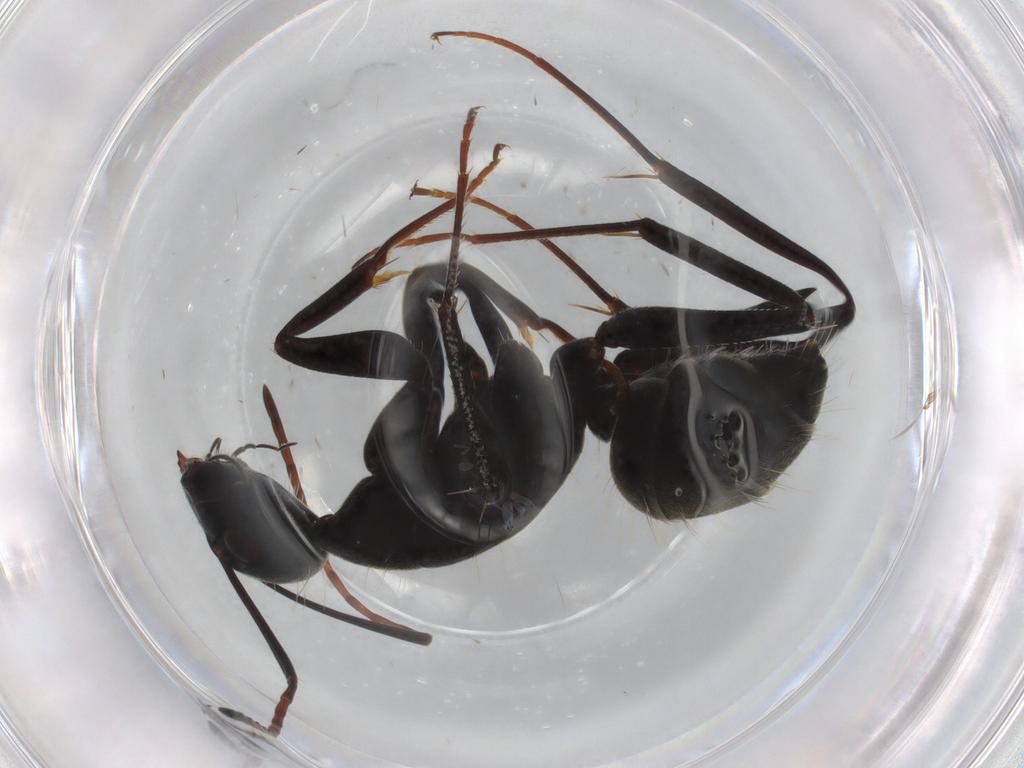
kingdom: Animalia
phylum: Arthropoda
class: Insecta
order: Hymenoptera
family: Formicidae
